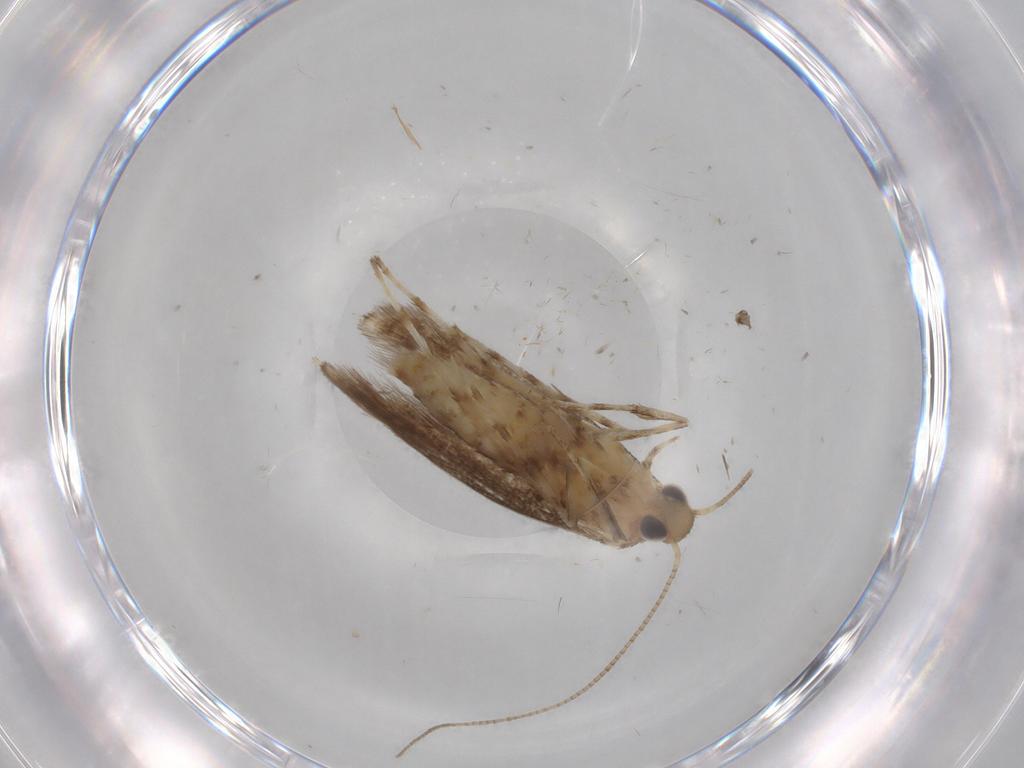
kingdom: Animalia
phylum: Arthropoda
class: Insecta
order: Lepidoptera
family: Gracillariidae
